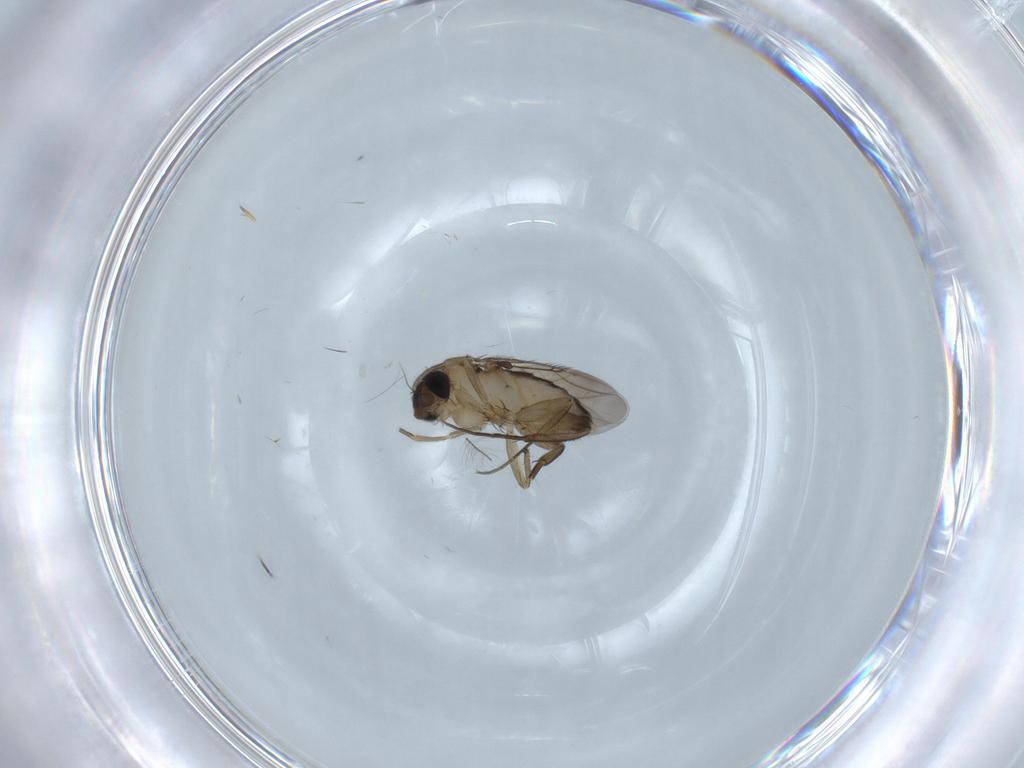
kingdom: Animalia
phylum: Arthropoda
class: Insecta
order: Diptera
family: Phoridae
